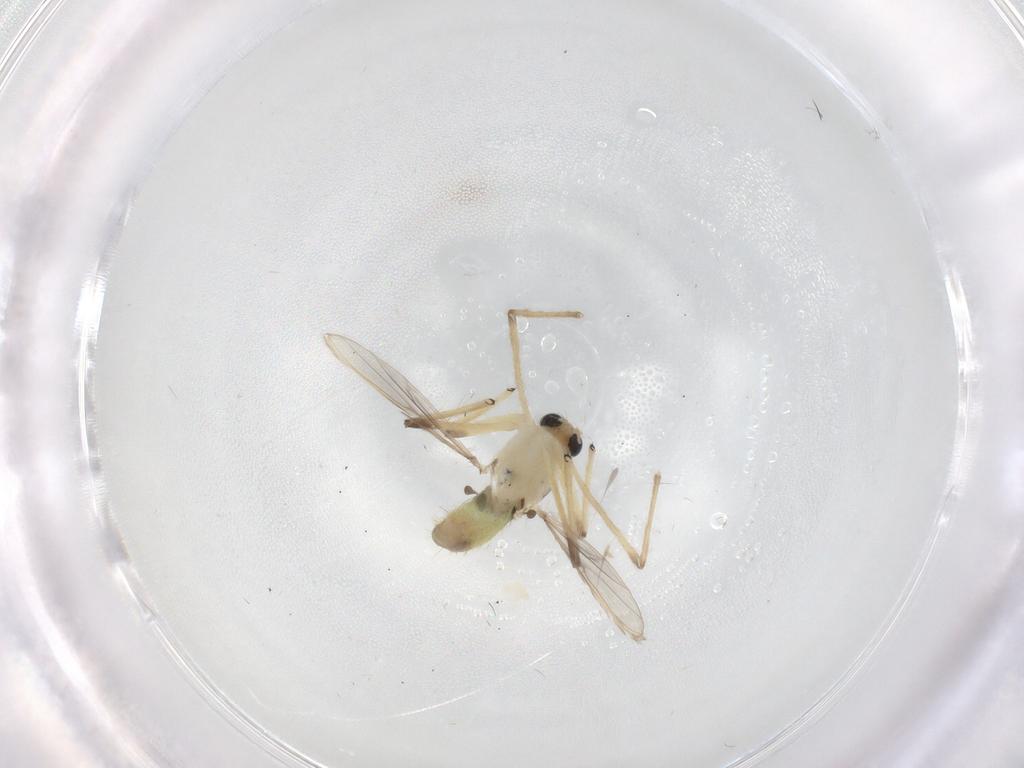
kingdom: Animalia
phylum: Arthropoda
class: Insecta
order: Diptera
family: Chironomidae
